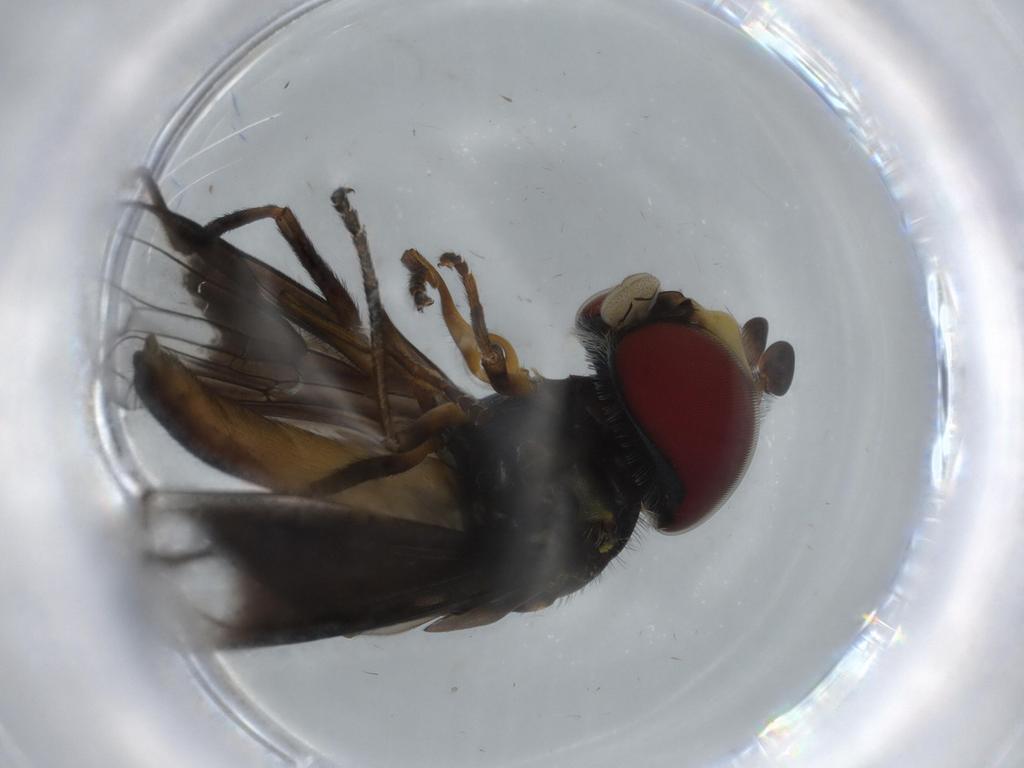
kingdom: Animalia
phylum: Arthropoda
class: Insecta
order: Diptera
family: Syrphidae
